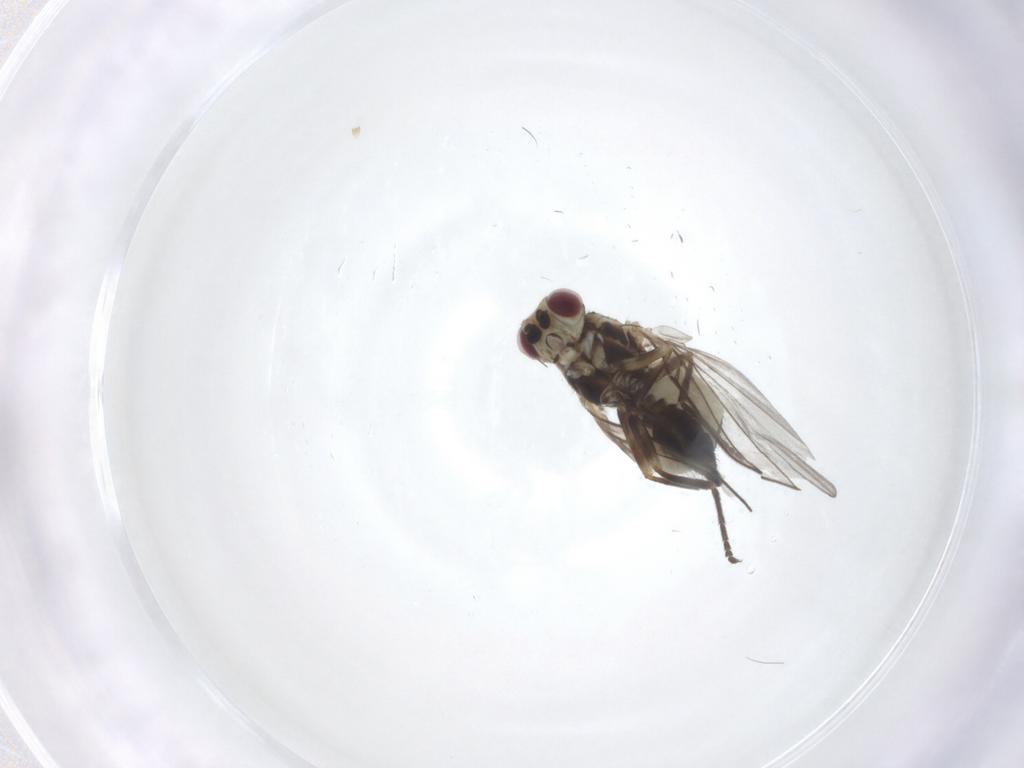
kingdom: Animalia
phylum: Arthropoda
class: Insecta
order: Diptera
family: Agromyzidae
